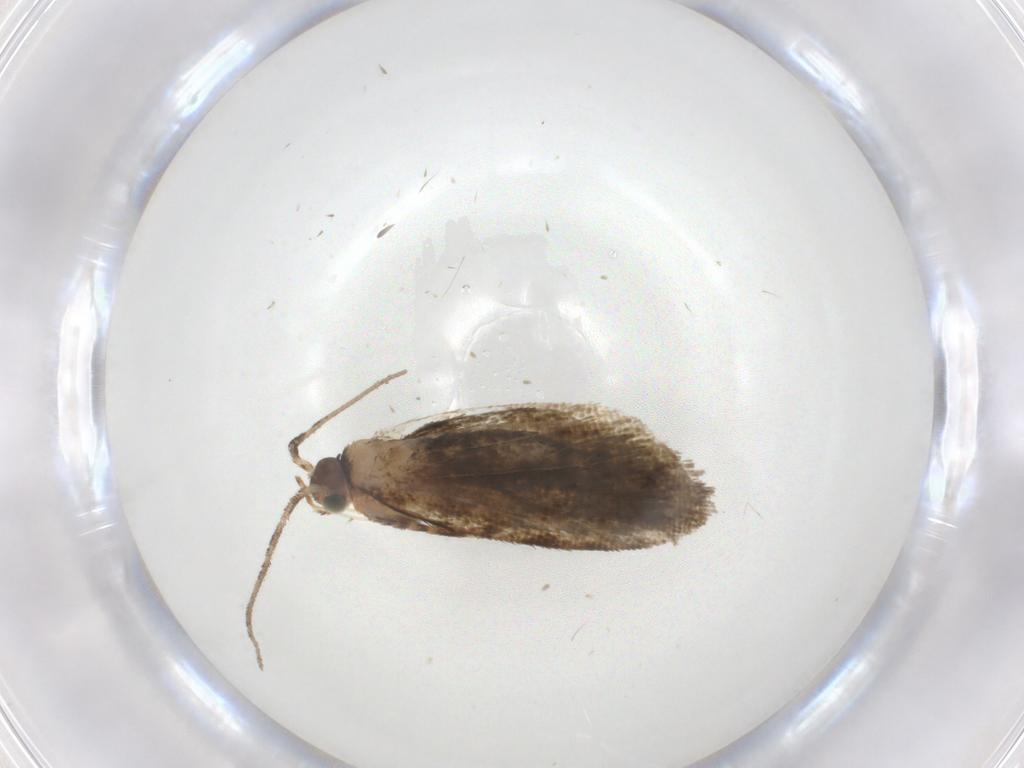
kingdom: Animalia
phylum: Arthropoda
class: Insecta
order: Lepidoptera
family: Tortricidae
